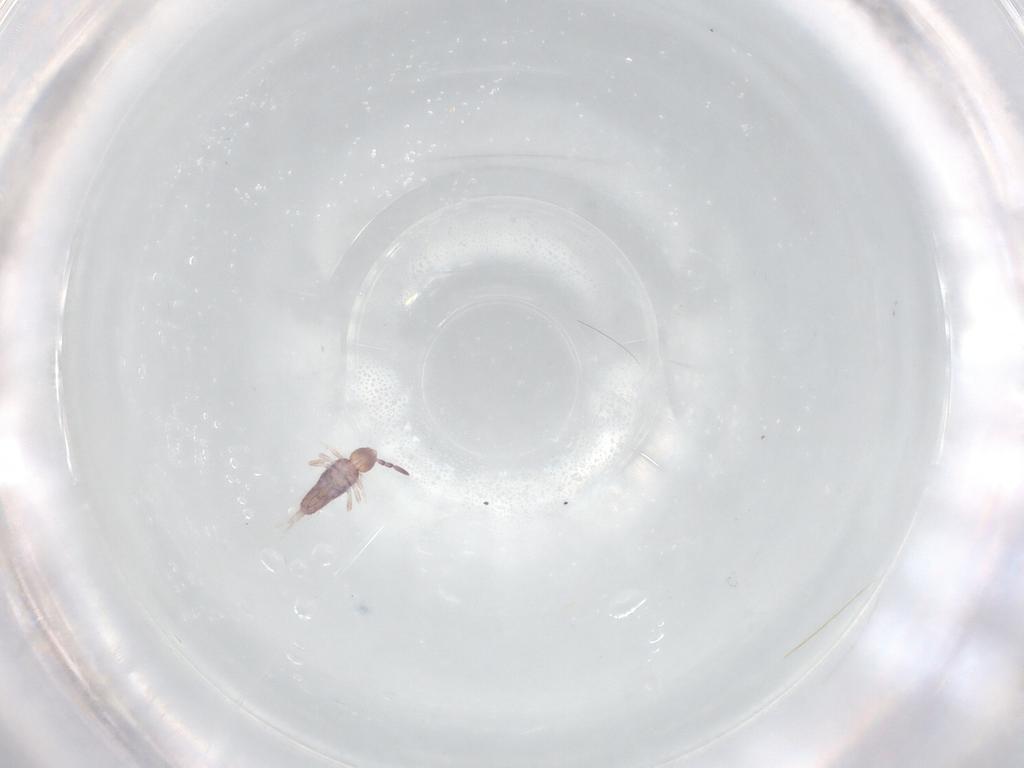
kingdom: Animalia
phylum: Arthropoda
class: Collembola
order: Entomobryomorpha
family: Entomobryidae
